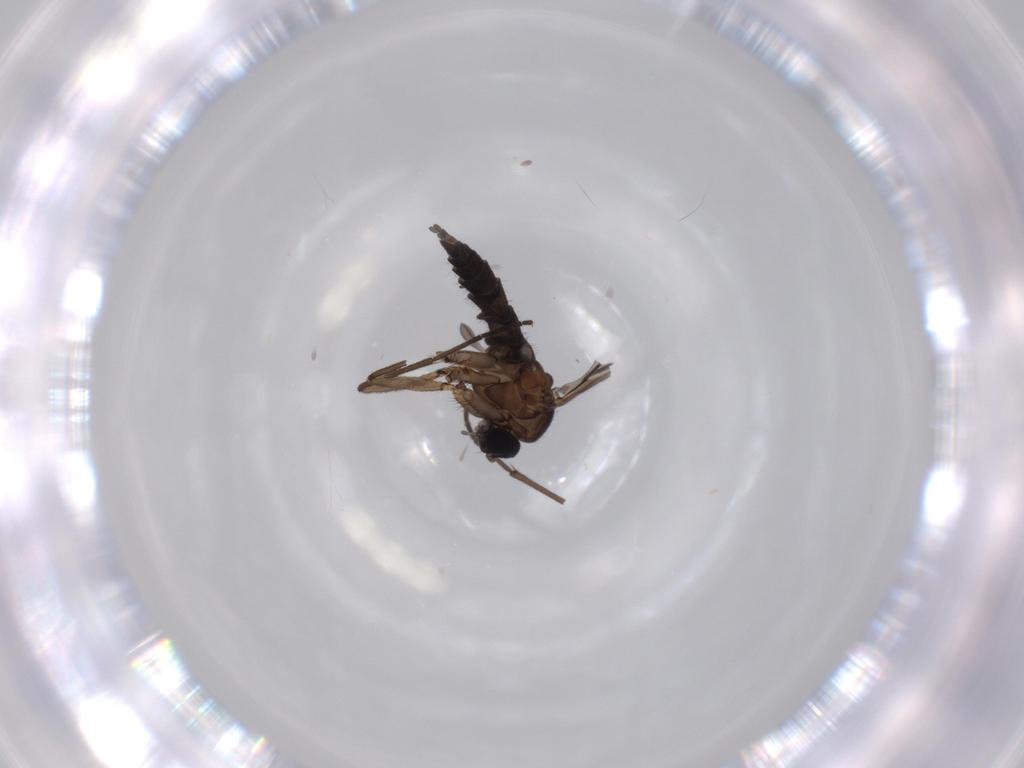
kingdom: Animalia
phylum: Arthropoda
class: Insecta
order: Diptera
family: Sciaridae
